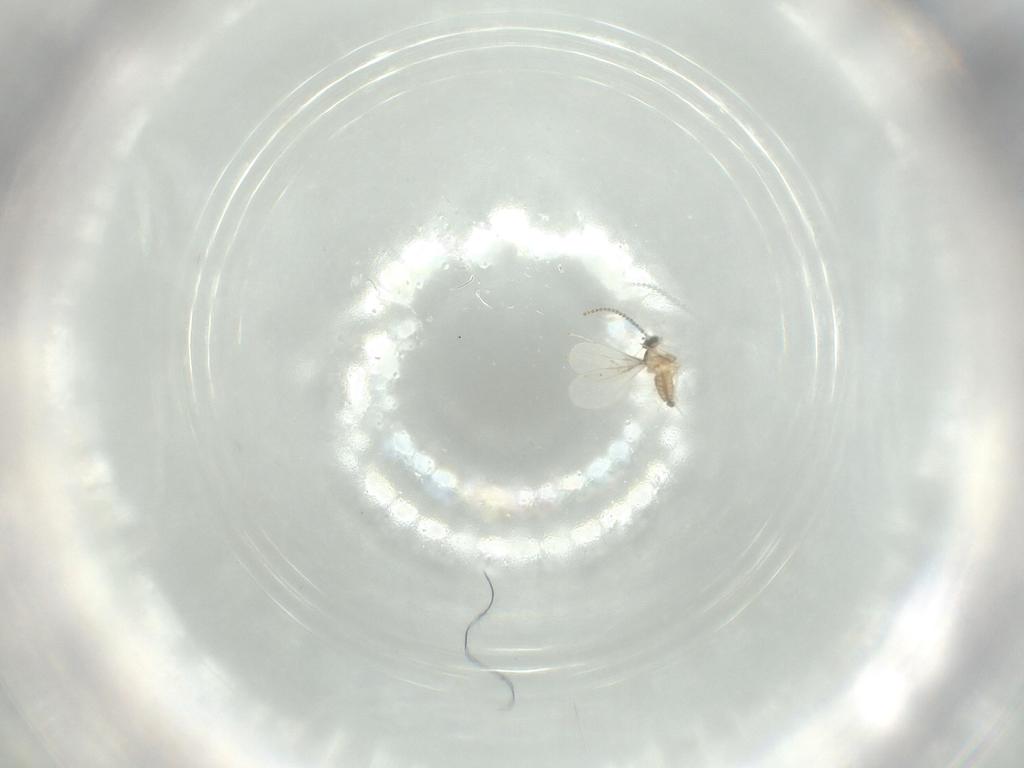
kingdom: Animalia
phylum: Arthropoda
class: Insecta
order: Diptera
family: Cecidomyiidae
